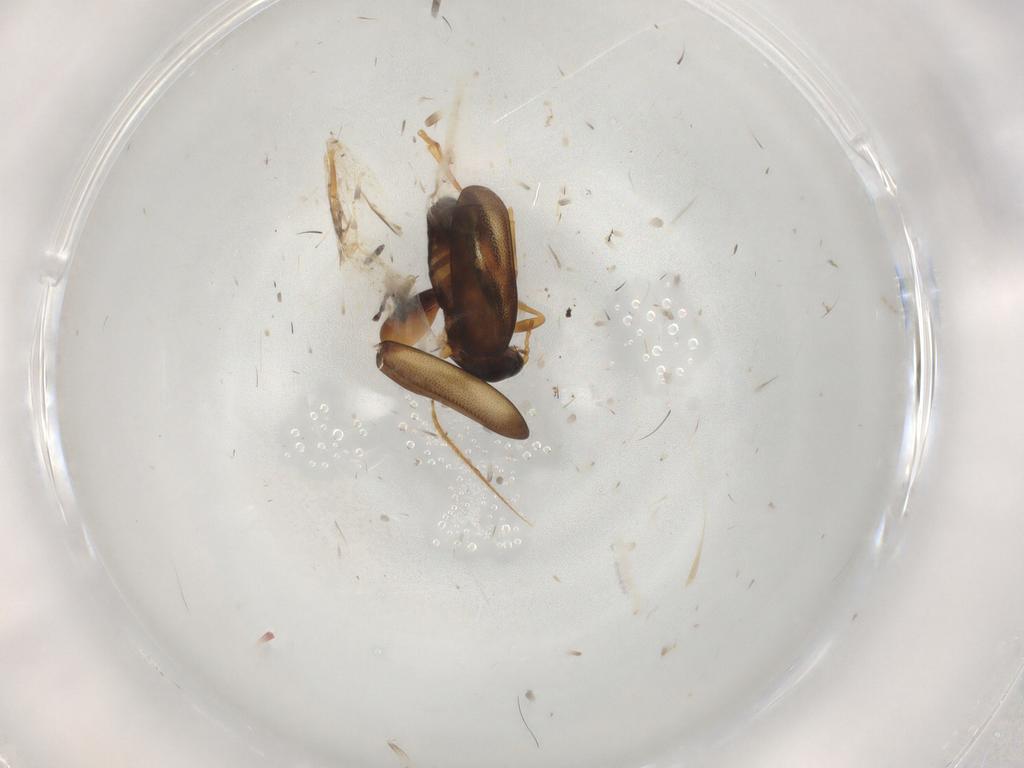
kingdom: Animalia
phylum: Arthropoda
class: Insecta
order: Coleoptera
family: Chrysomelidae
